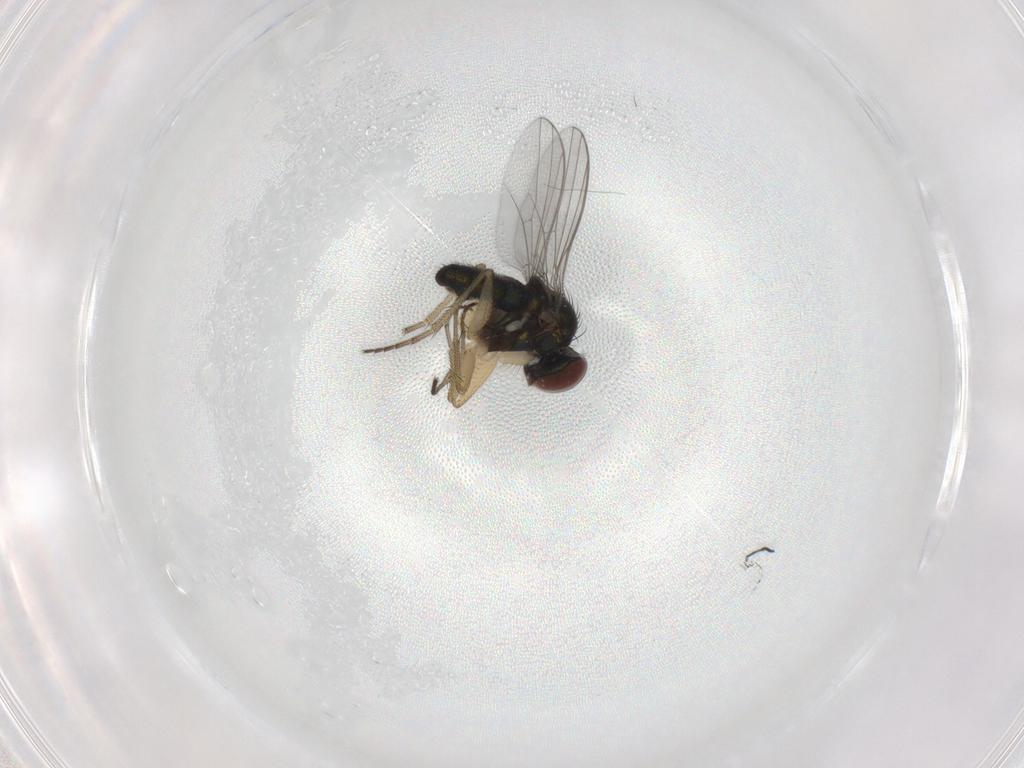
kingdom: Animalia
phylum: Arthropoda
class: Insecta
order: Diptera
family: Dolichopodidae
